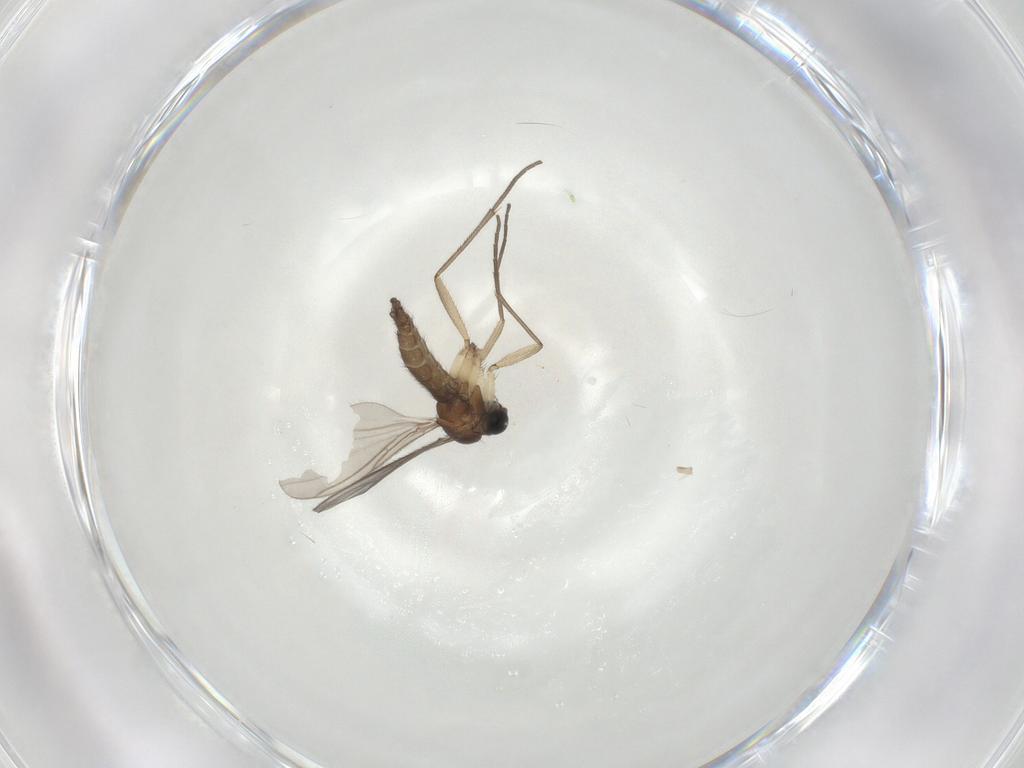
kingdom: Animalia
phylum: Arthropoda
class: Insecta
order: Diptera
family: Sciaridae
